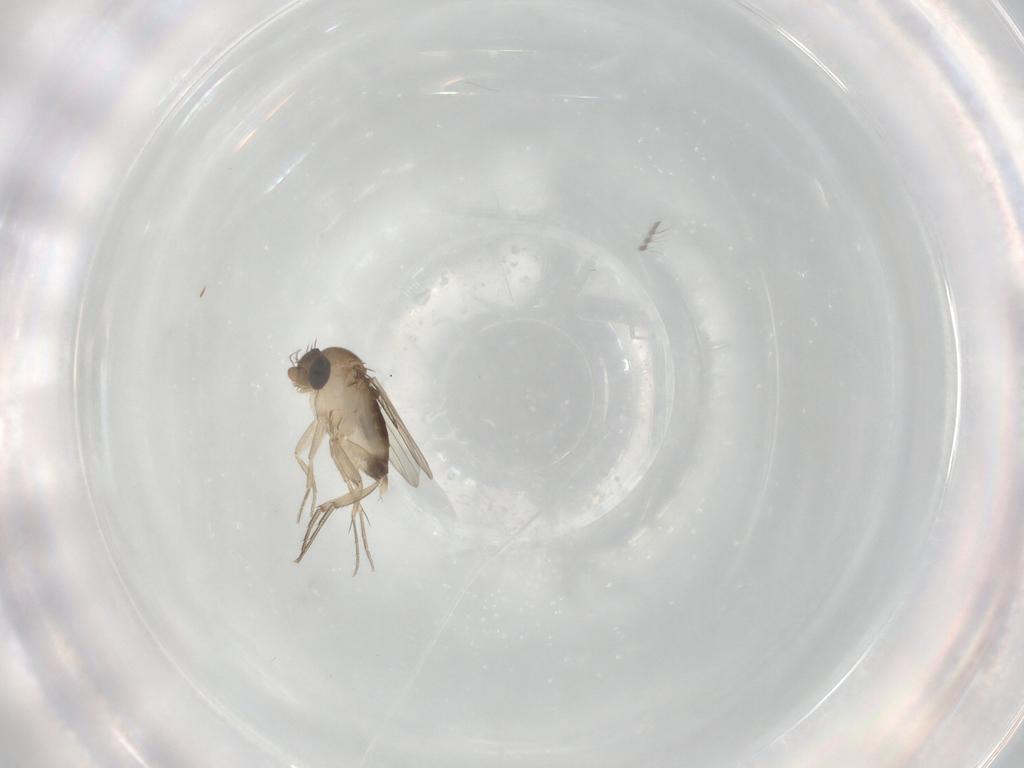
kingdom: Animalia
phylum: Arthropoda
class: Insecta
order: Diptera
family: Phoridae
